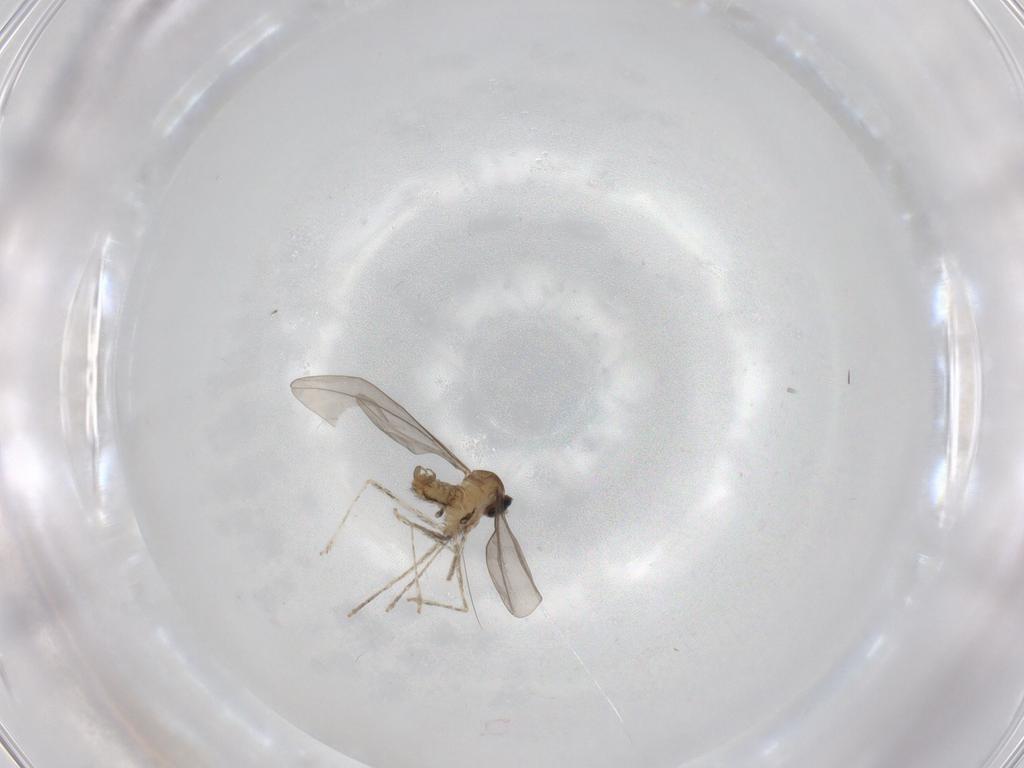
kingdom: Animalia
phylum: Arthropoda
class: Insecta
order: Diptera
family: Cecidomyiidae
